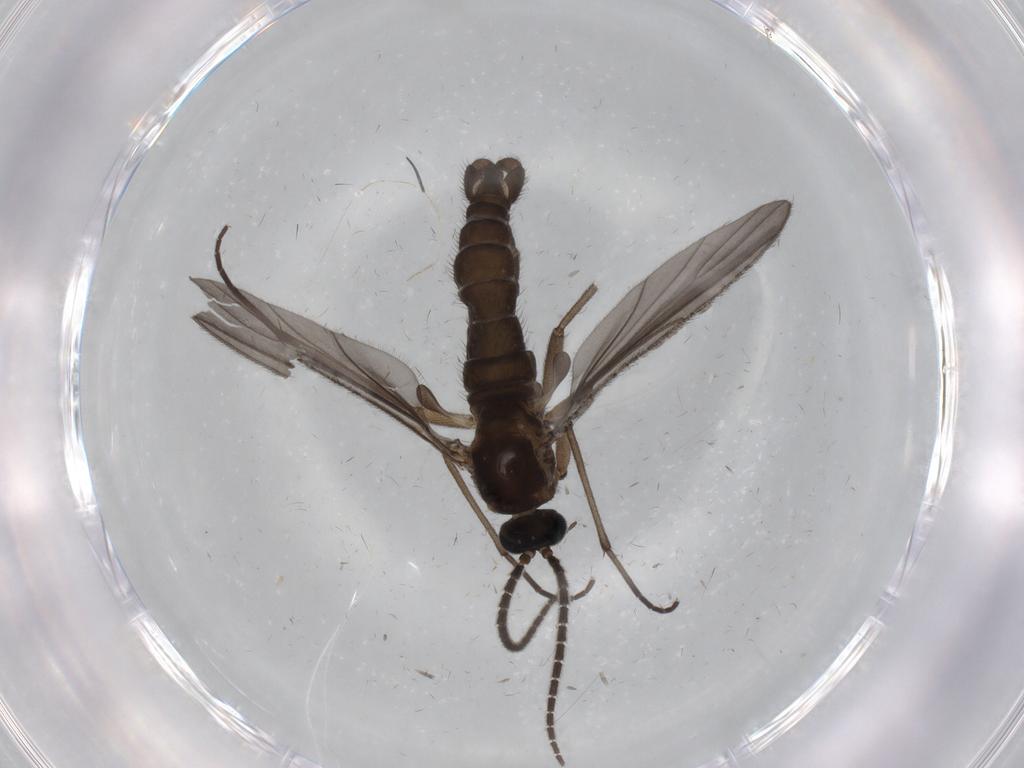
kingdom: Animalia
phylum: Arthropoda
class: Insecta
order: Diptera
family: Sciaridae
